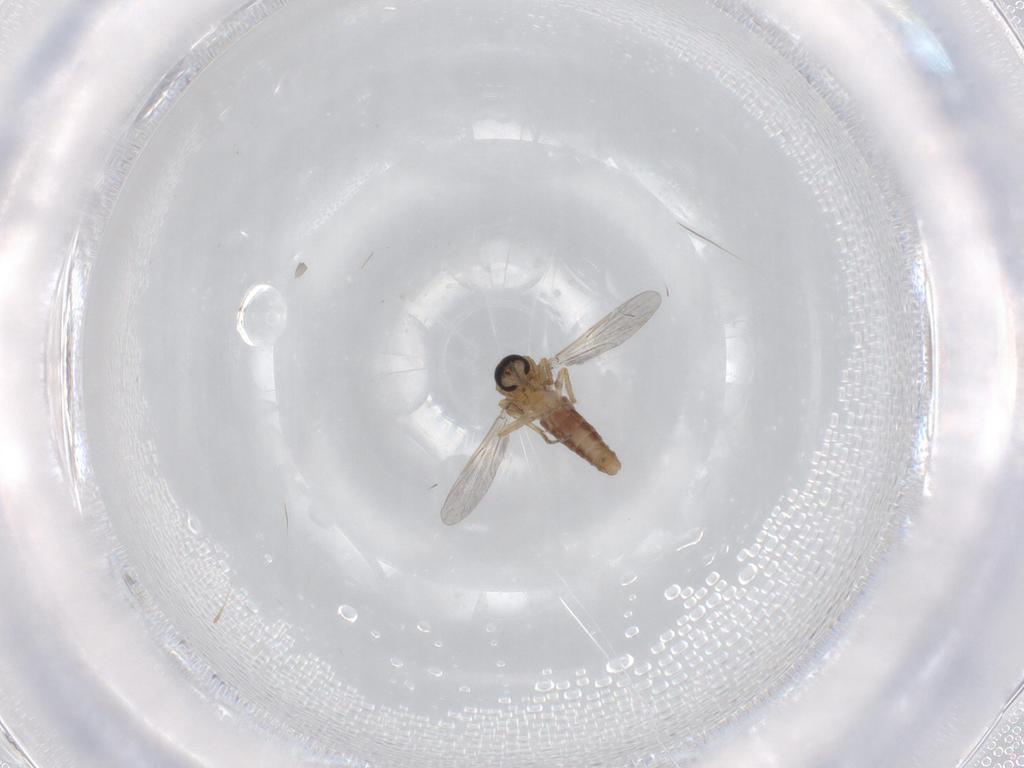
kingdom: Animalia
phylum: Arthropoda
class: Insecta
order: Diptera
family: Ceratopogonidae
